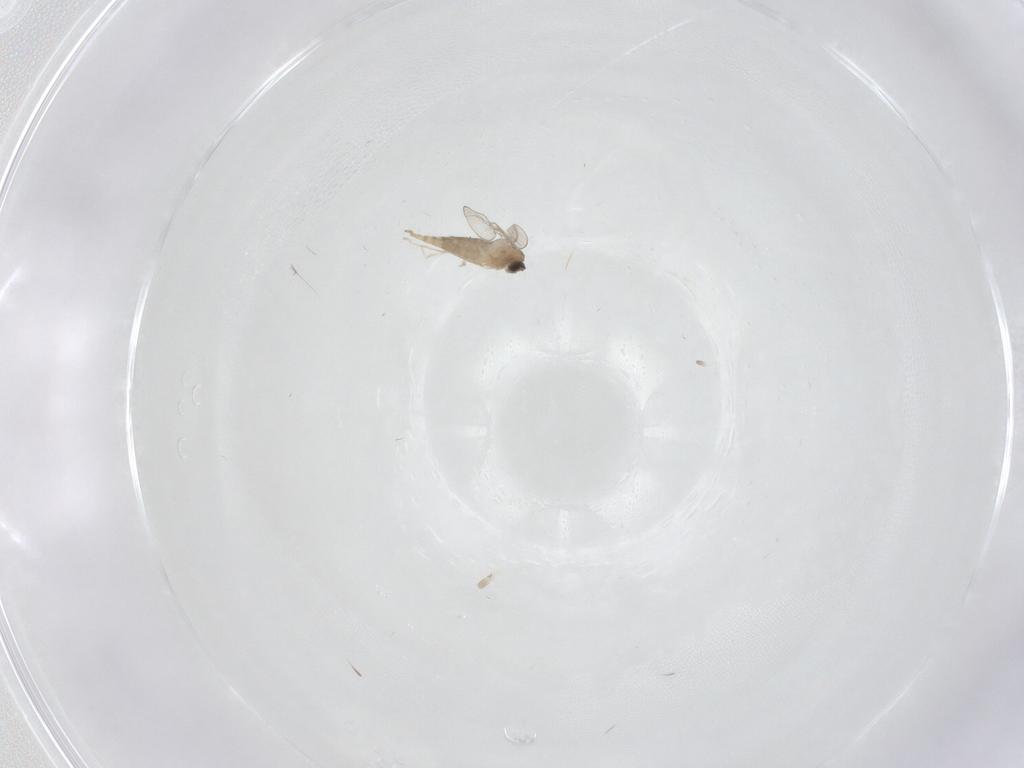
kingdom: Animalia
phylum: Arthropoda
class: Insecta
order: Diptera
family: Cecidomyiidae
